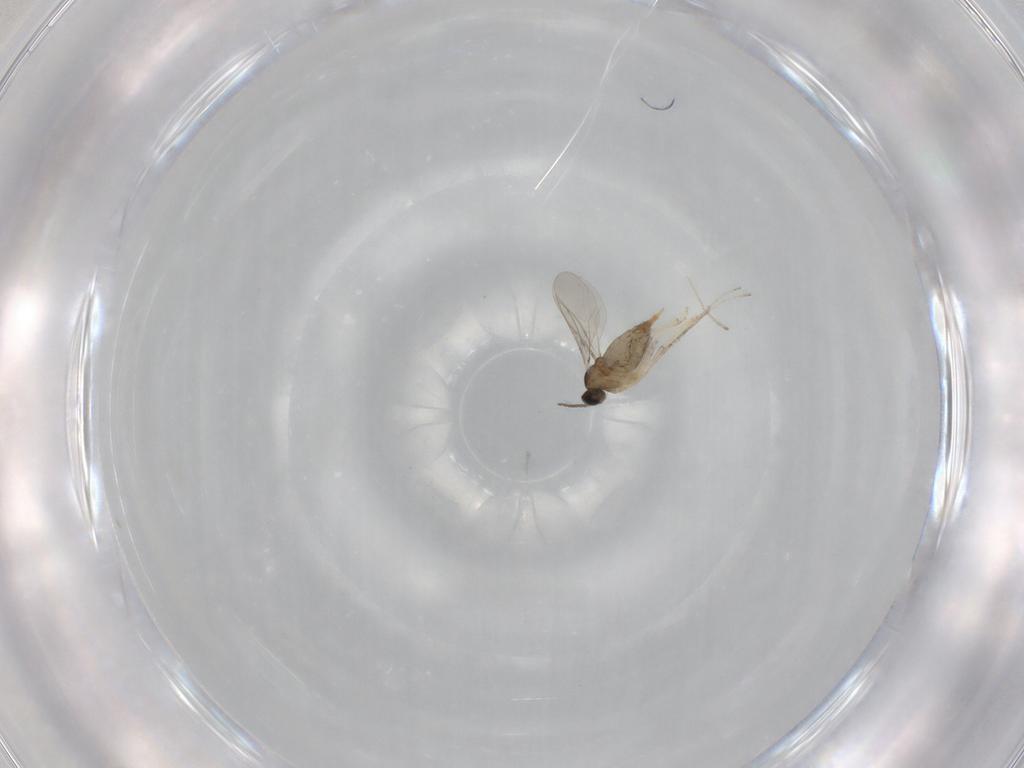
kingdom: Animalia
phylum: Arthropoda
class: Insecta
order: Diptera
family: Cecidomyiidae
